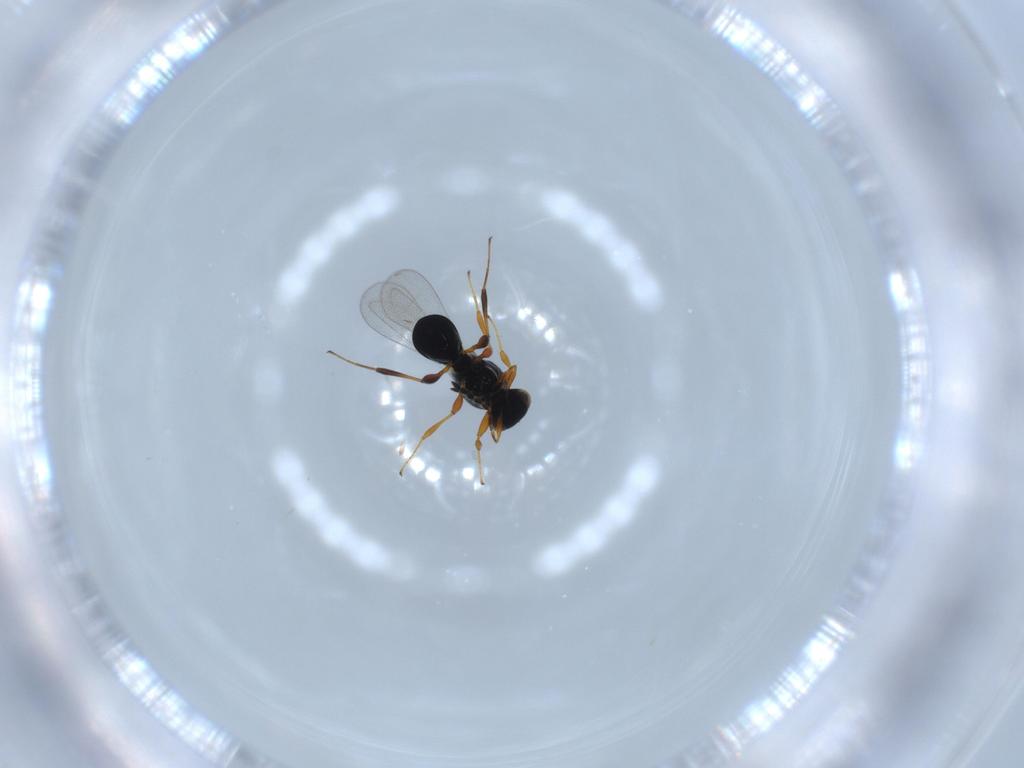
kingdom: Animalia
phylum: Arthropoda
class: Insecta
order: Hymenoptera
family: Platygastridae
